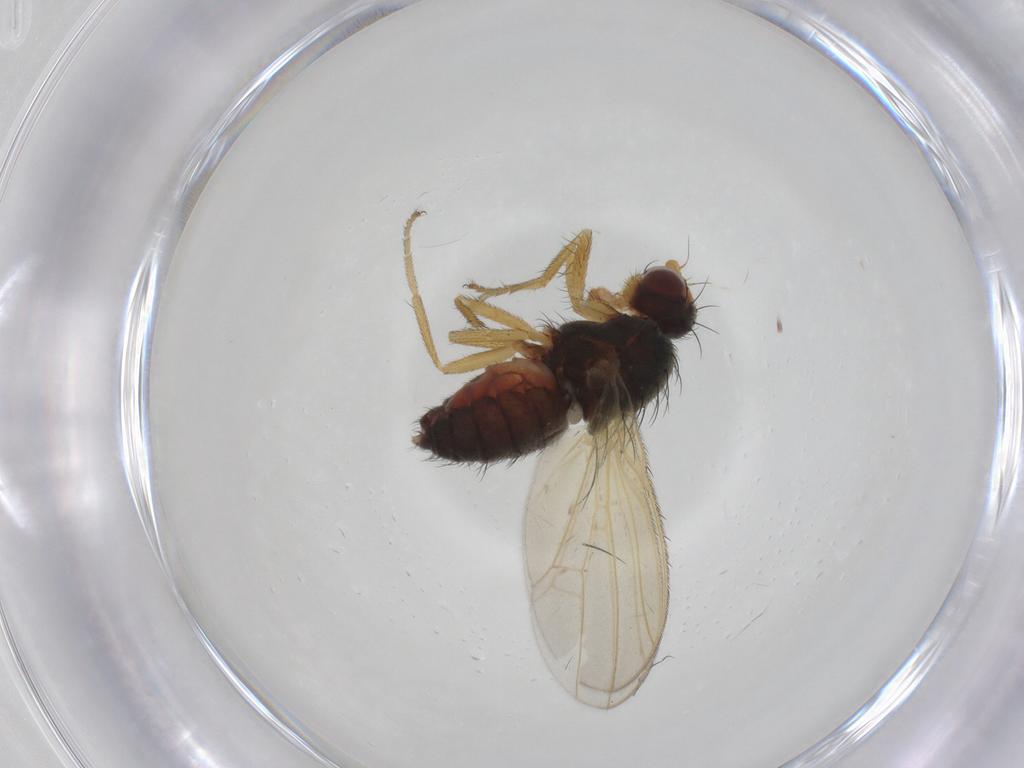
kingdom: Animalia
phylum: Arthropoda
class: Insecta
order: Diptera
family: Heleomyzidae
